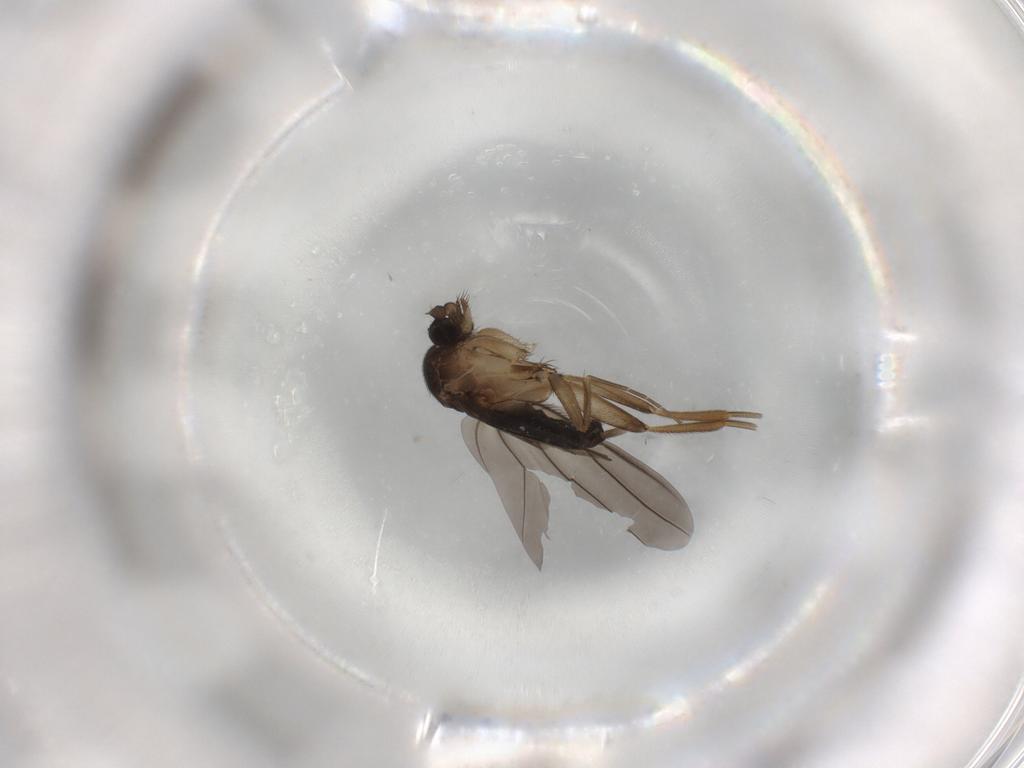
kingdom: Animalia
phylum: Arthropoda
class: Insecta
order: Diptera
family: Phoridae
